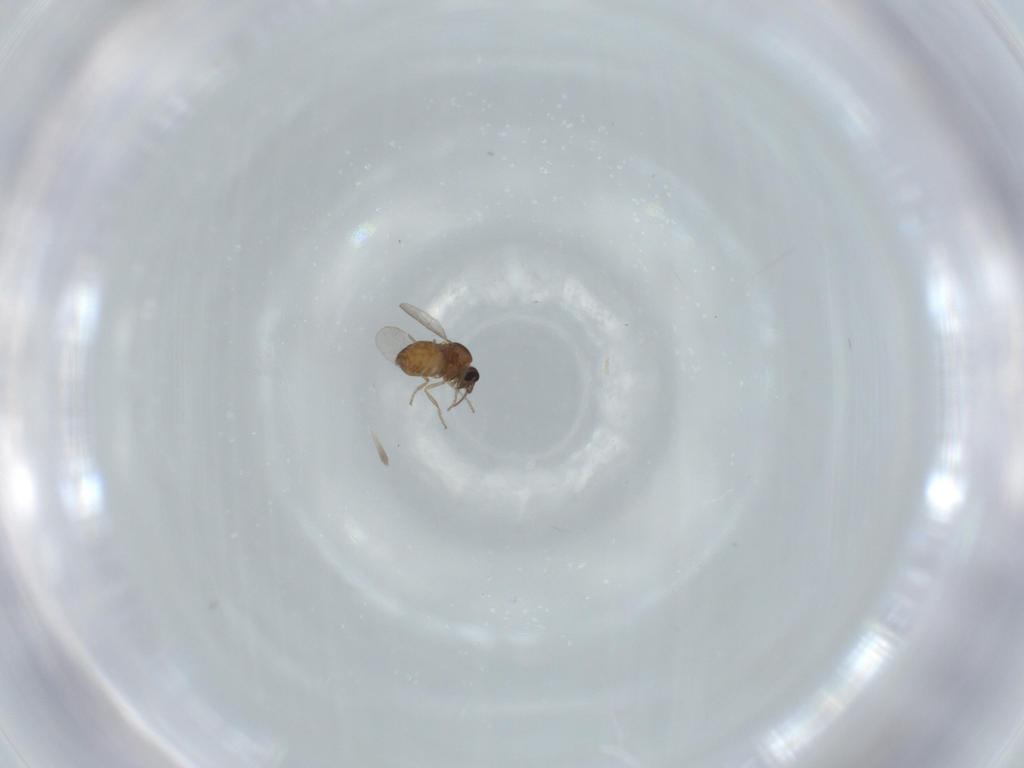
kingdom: Animalia
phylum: Arthropoda
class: Insecta
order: Diptera
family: Ceratopogonidae
